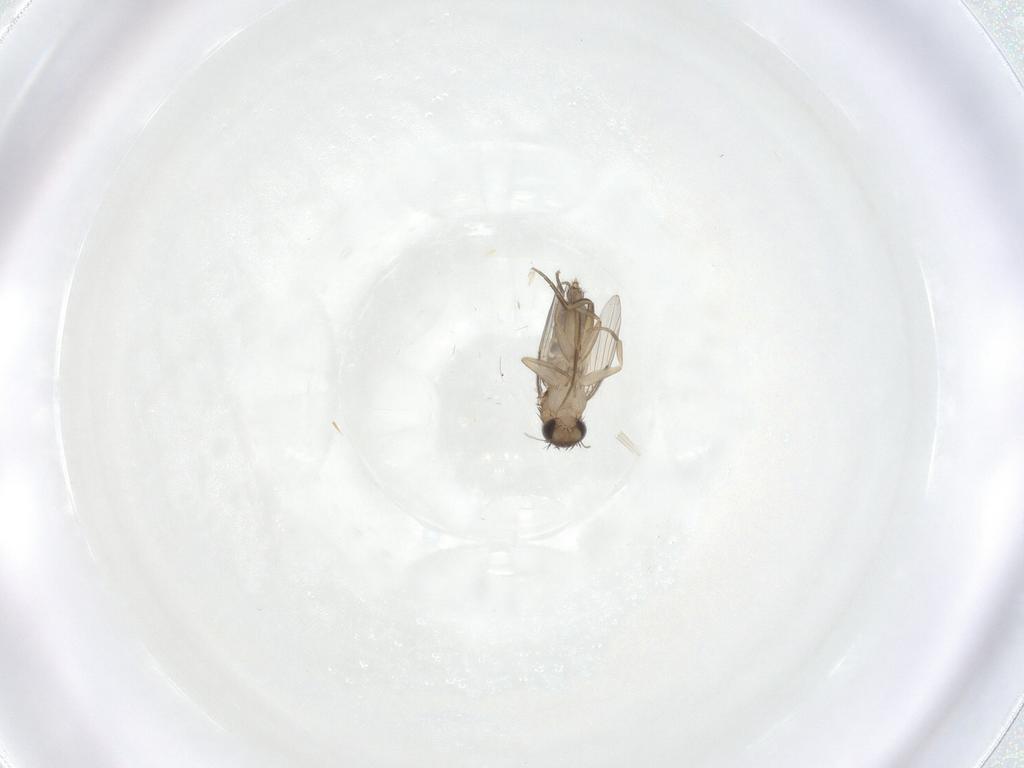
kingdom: Animalia
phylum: Arthropoda
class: Insecta
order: Diptera
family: Phoridae
